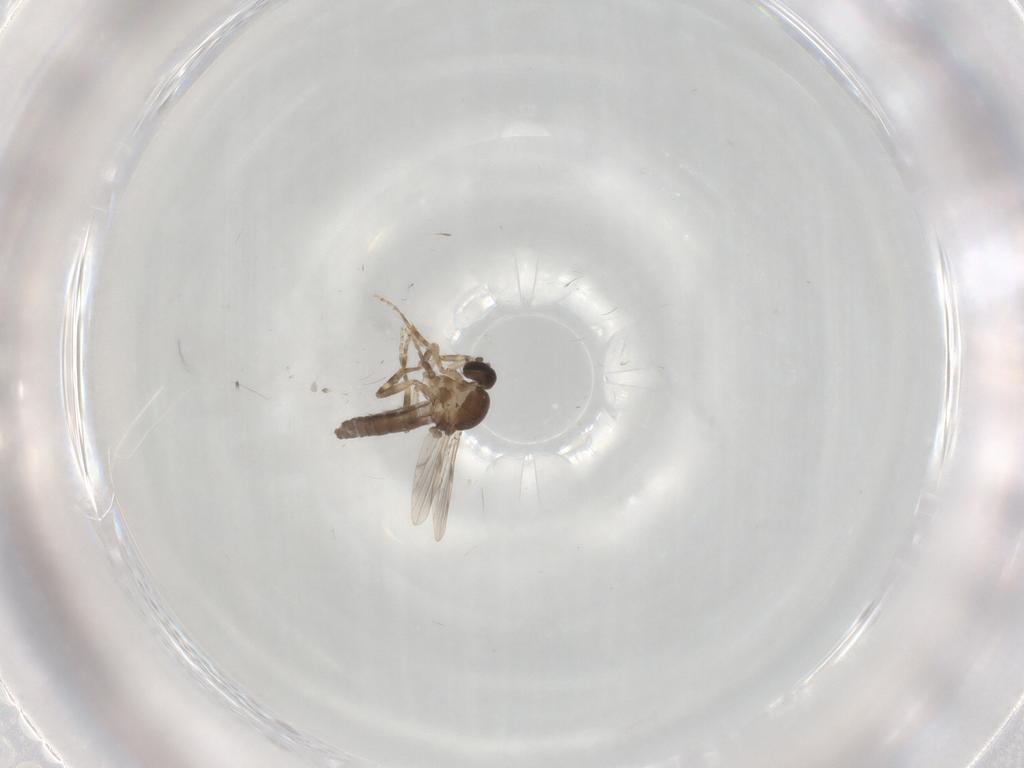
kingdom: Animalia
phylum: Arthropoda
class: Insecta
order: Diptera
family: Ceratopogonidae
